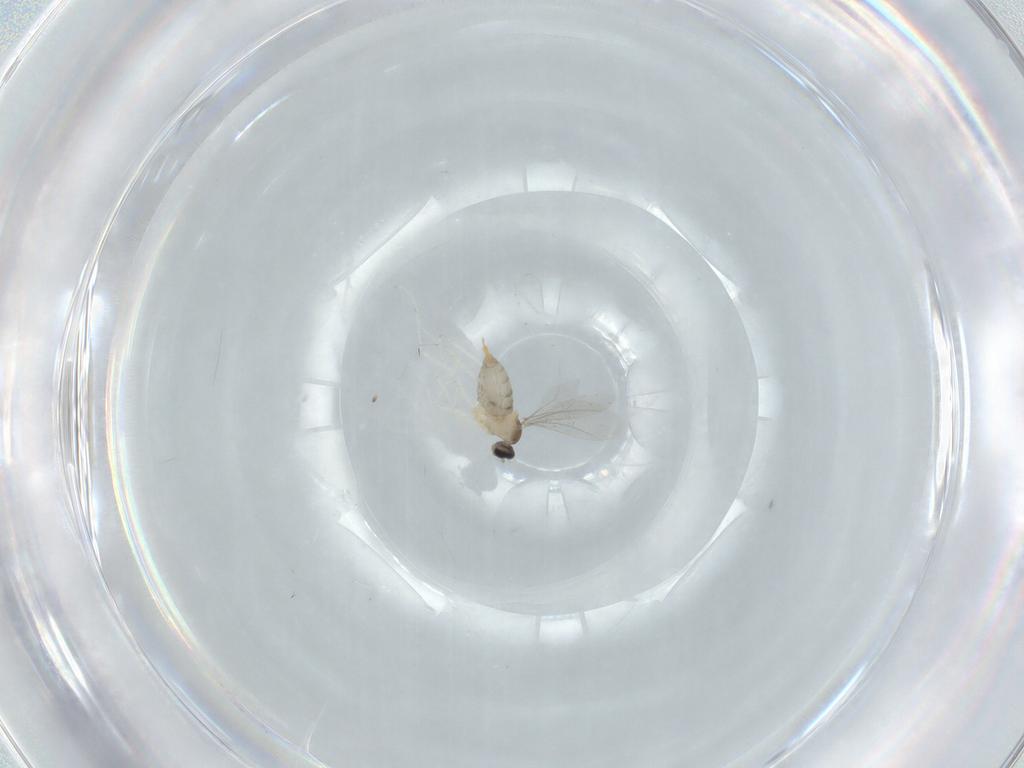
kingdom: Animalia
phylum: Arthropoda
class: Insecta
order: Diptera
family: Cecidomyiidae
